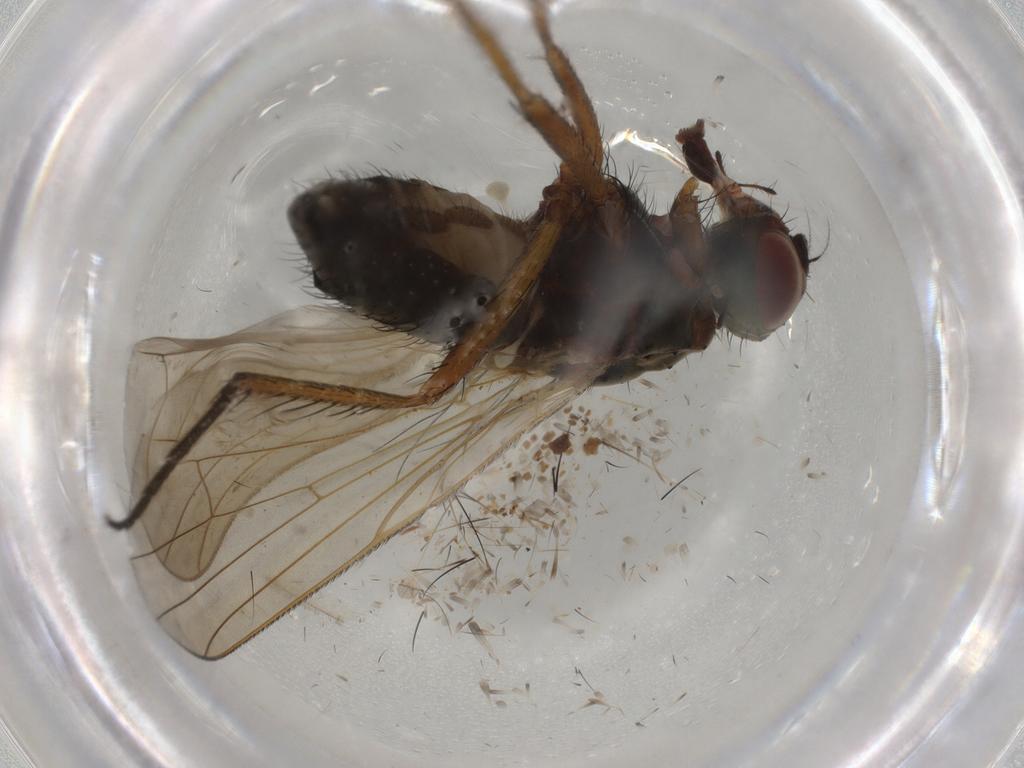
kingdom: Animalia
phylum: Arthropoda
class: Insecta
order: Diptera
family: Anthomyiidae
